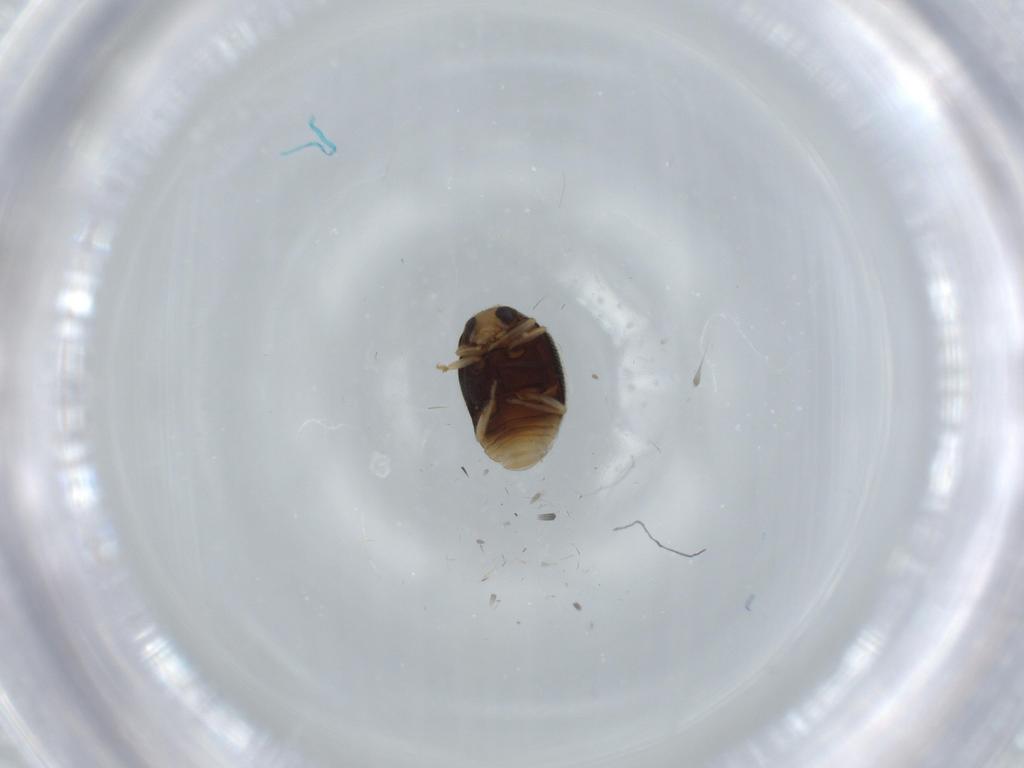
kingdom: Animalia
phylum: Arthropoda
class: Insecta
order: Coleoptera
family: Coccinellidae
